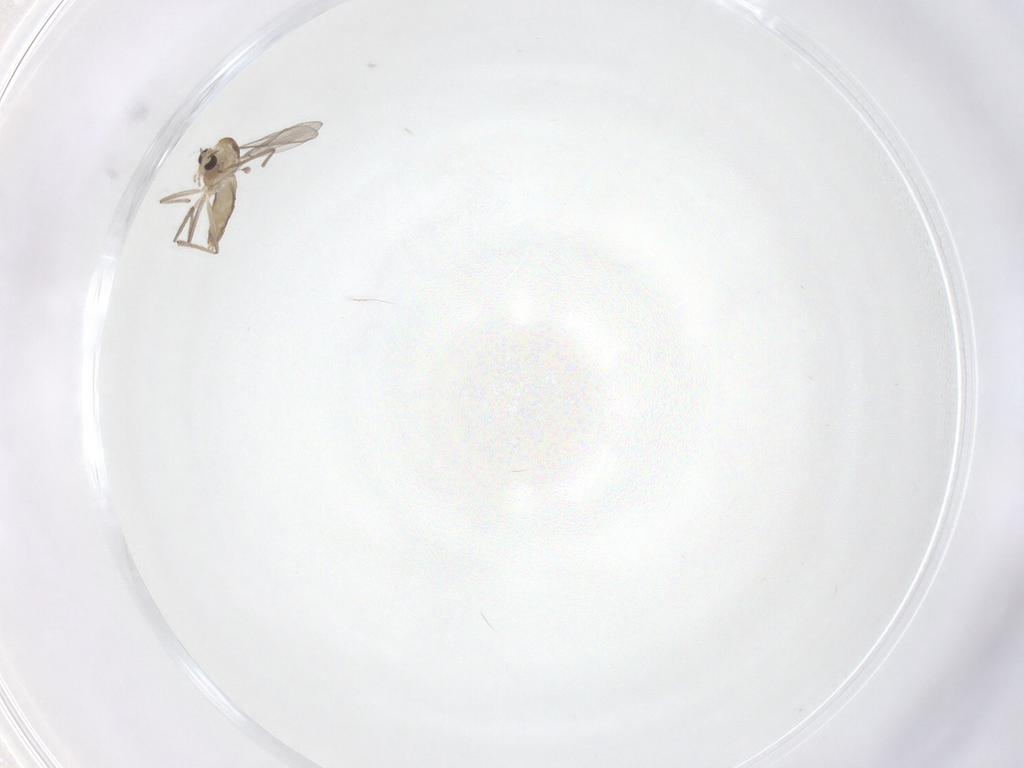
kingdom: Animalia
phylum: Arthropoda
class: Insecta
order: Diptera
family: Chironomidae
